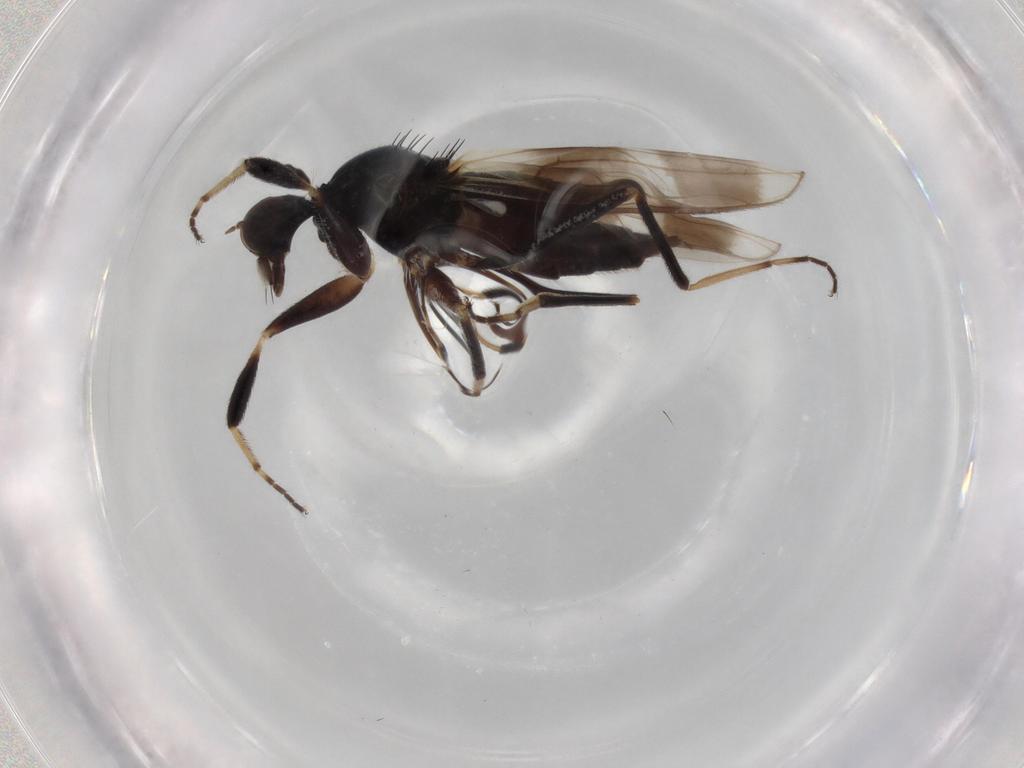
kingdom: Animalia
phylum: Arthropoda
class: Insecta
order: Diptera
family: Hybotidae
